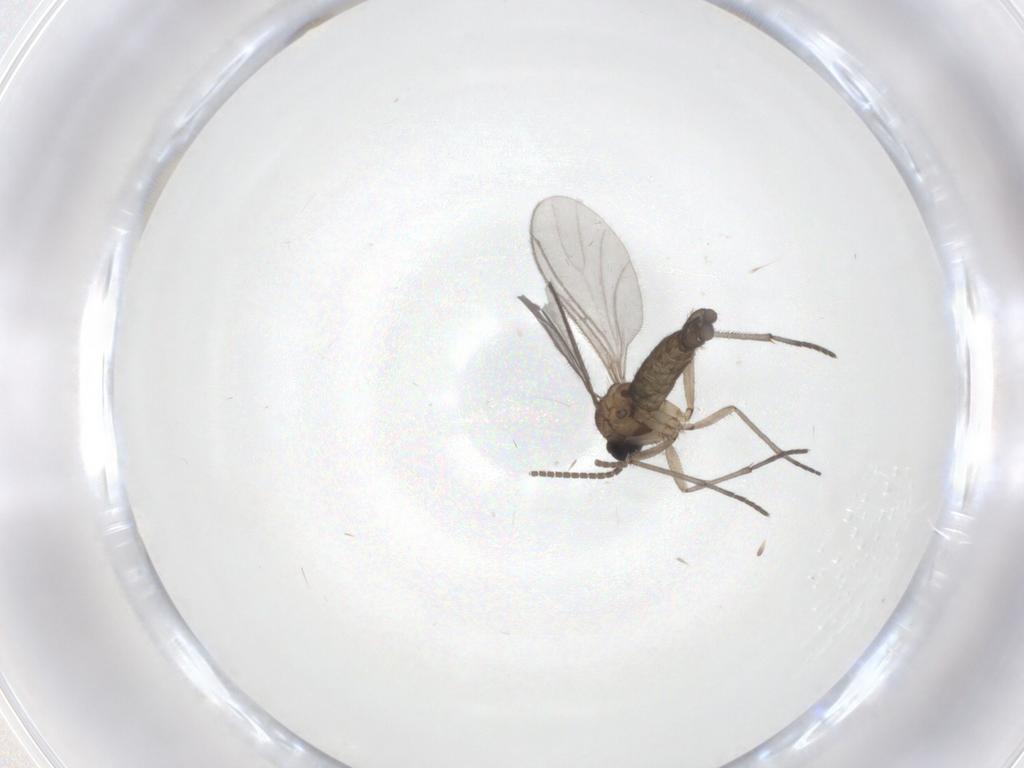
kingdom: Animalia
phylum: Arthropoda
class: Insecta
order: Diptera
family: Sciaridae
